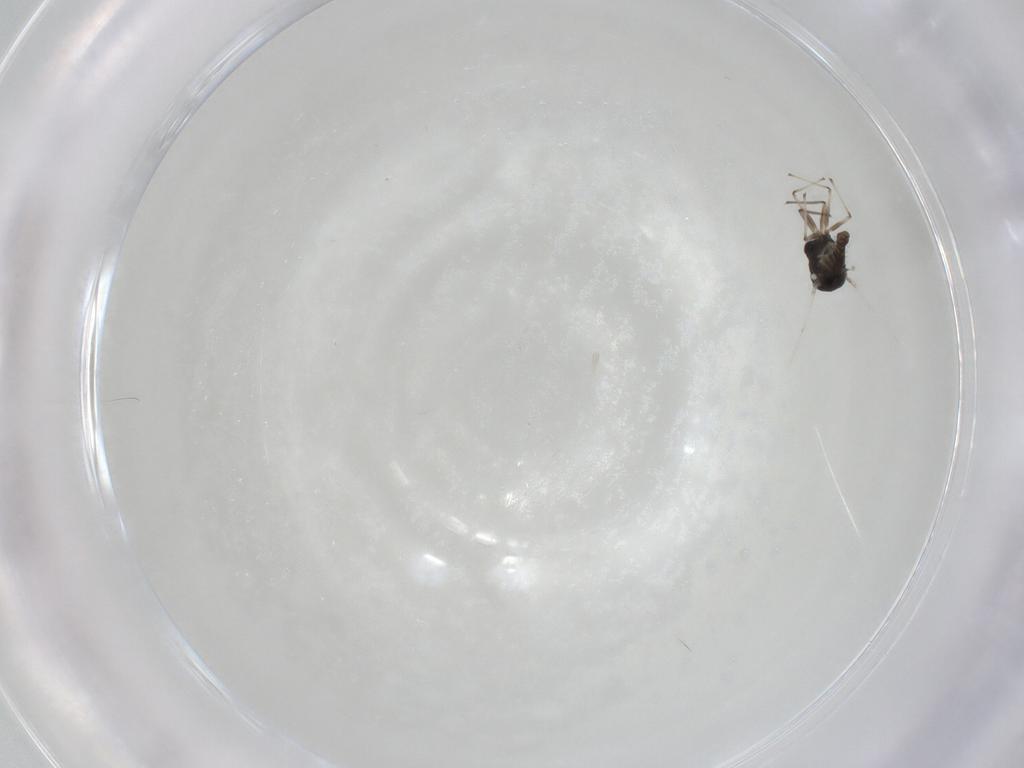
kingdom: Animalia
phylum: Arthropoda
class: Insecta
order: Diptera
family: Chironomidae
